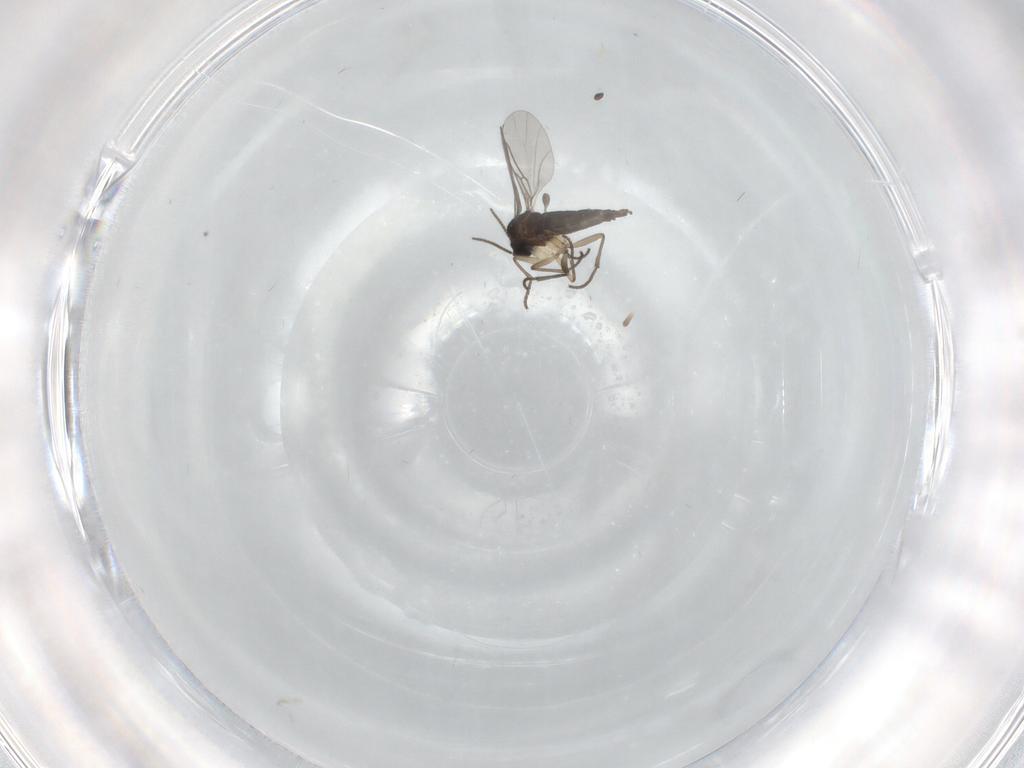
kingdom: Animalia
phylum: Arthropoda
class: Insecta
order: Diptera
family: Sciaridae
